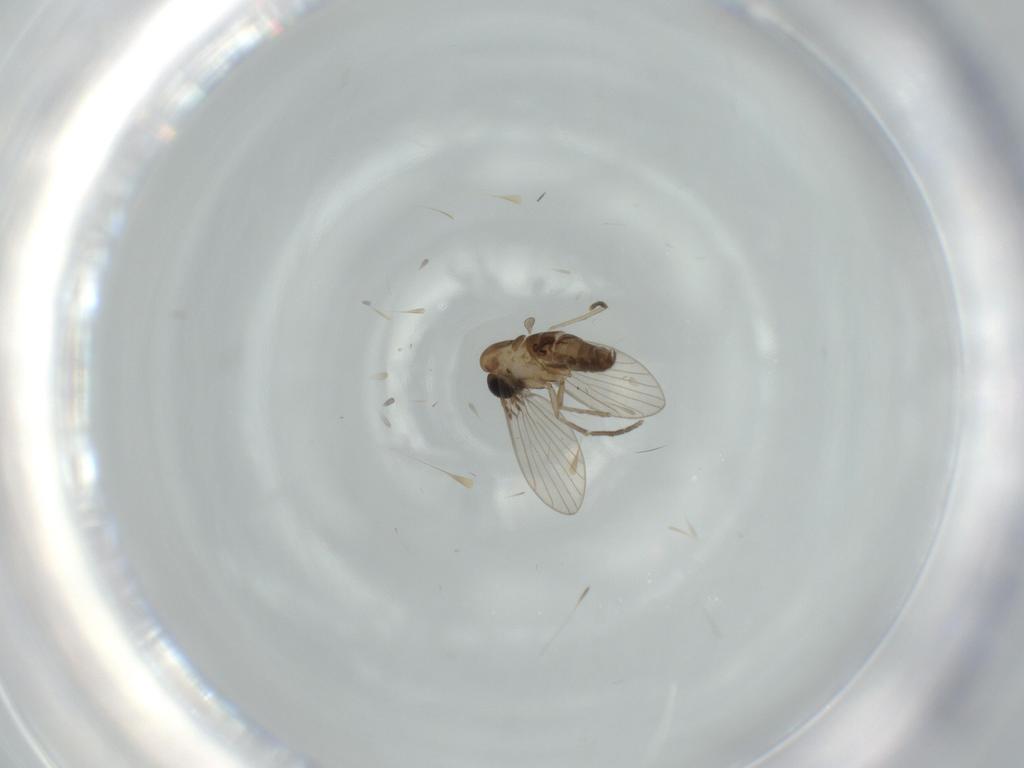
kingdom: Animalia
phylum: Arthropoda
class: Insecta
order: Diptera
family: Psychodidae
